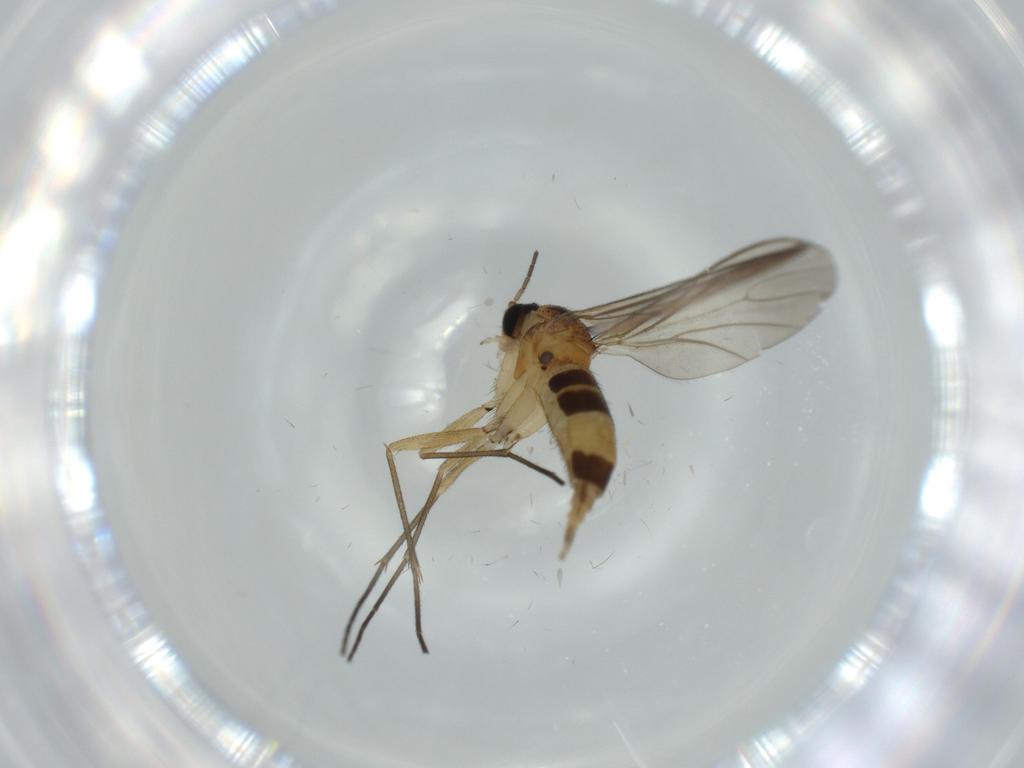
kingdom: Animalia
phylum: Arthropoda
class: Insecta
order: Diptera
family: Sciaridae
